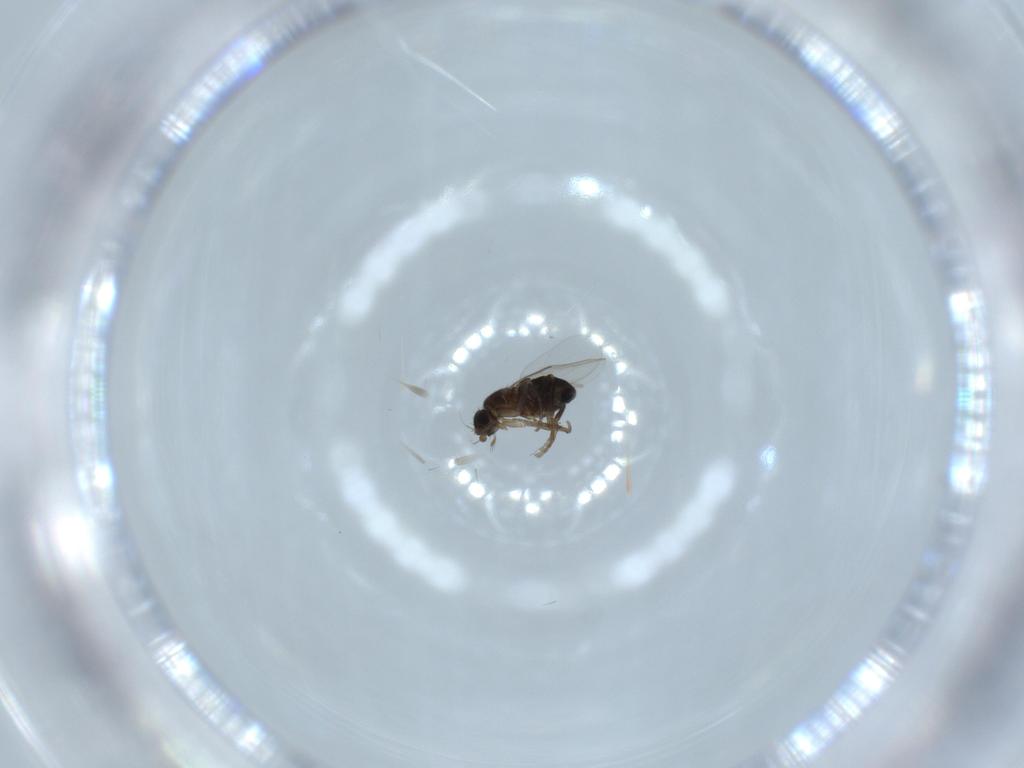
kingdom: Animalia
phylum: Arthropoda
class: Insecta
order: Diptera
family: Phoridae
